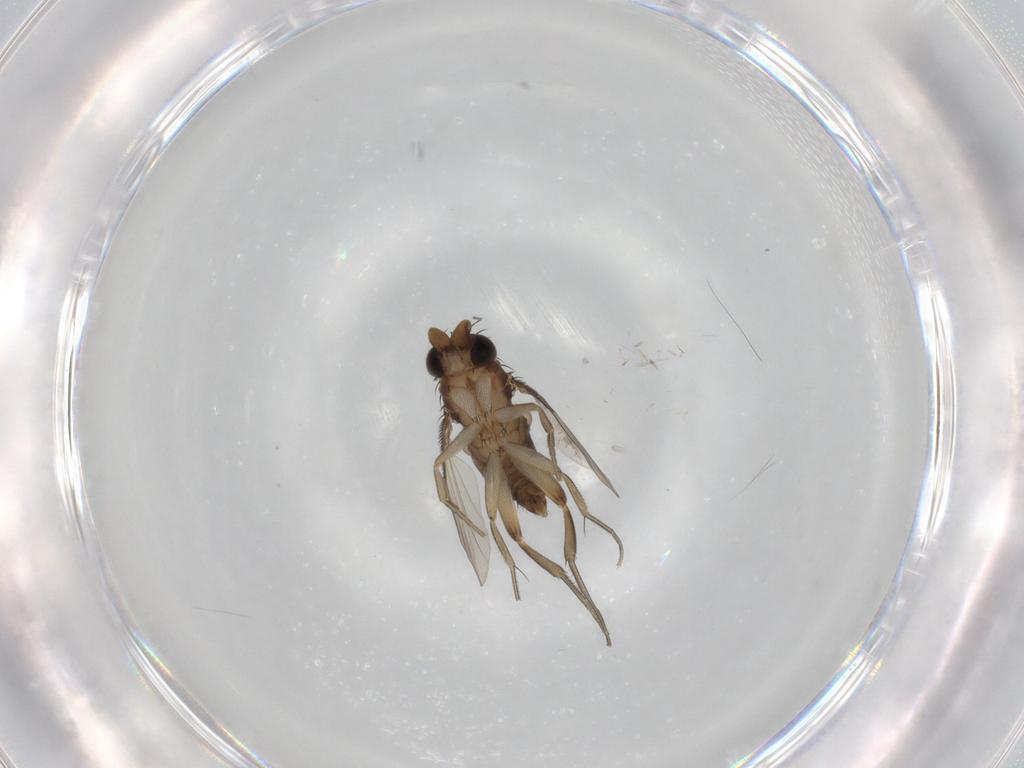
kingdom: Animalia
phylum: Arthropoda
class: Insecta
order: Diptera
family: Phoridae
